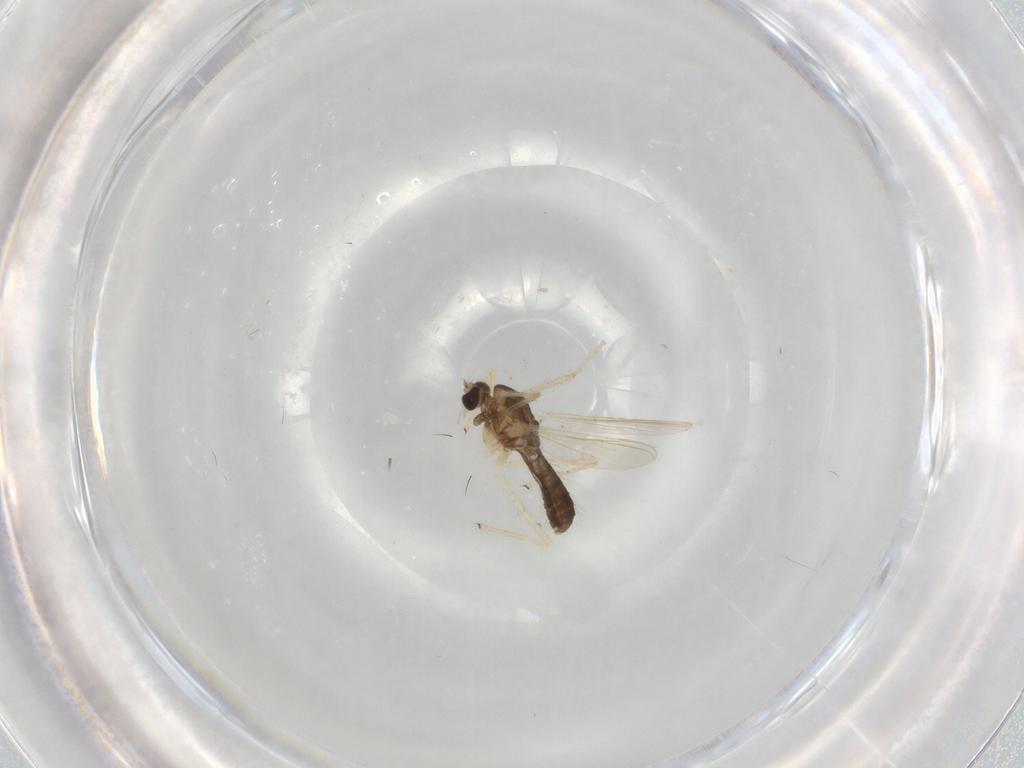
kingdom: Animalia
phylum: Arthropoda
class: Insecta
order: Diptera
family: Chironomidae
